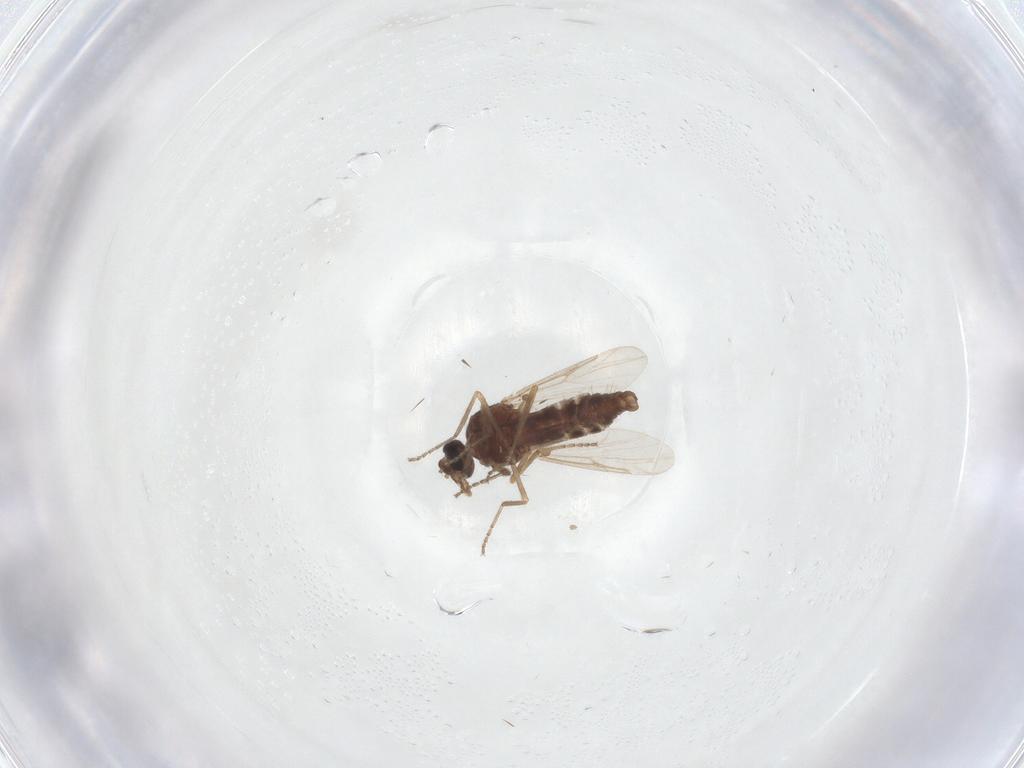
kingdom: Animalia
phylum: Arthropoda
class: Insecta
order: Diptera
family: Ceratopogonidae
